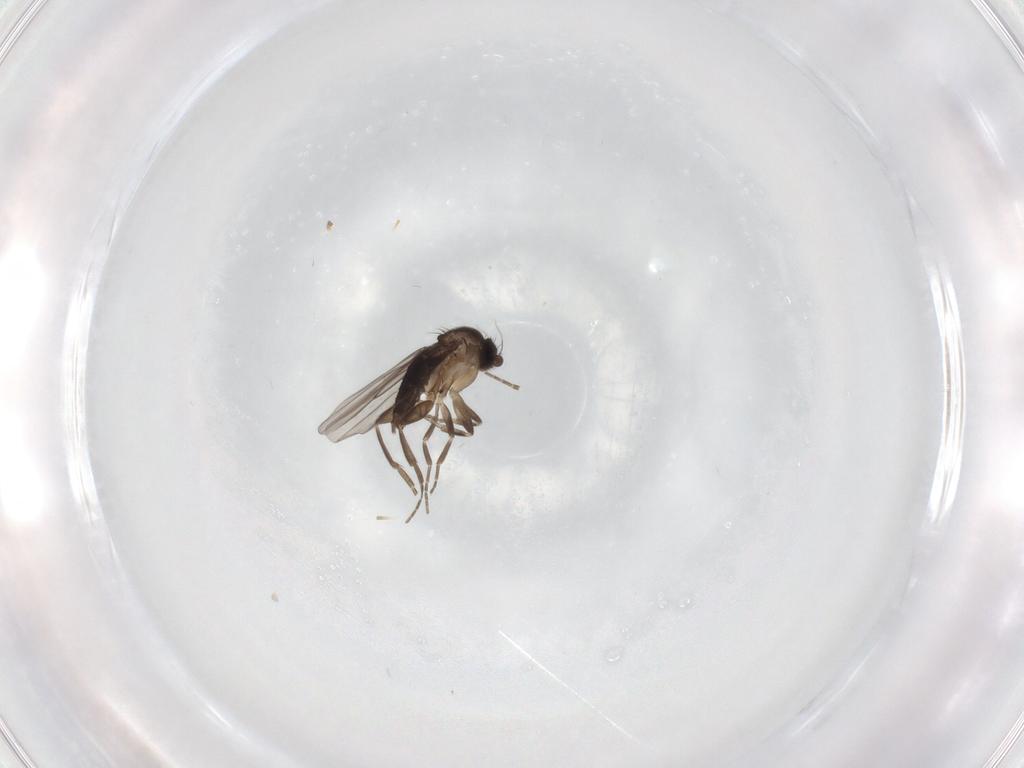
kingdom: Animalia
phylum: Arthropoda
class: Insecta
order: Diptera
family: Phoridae
